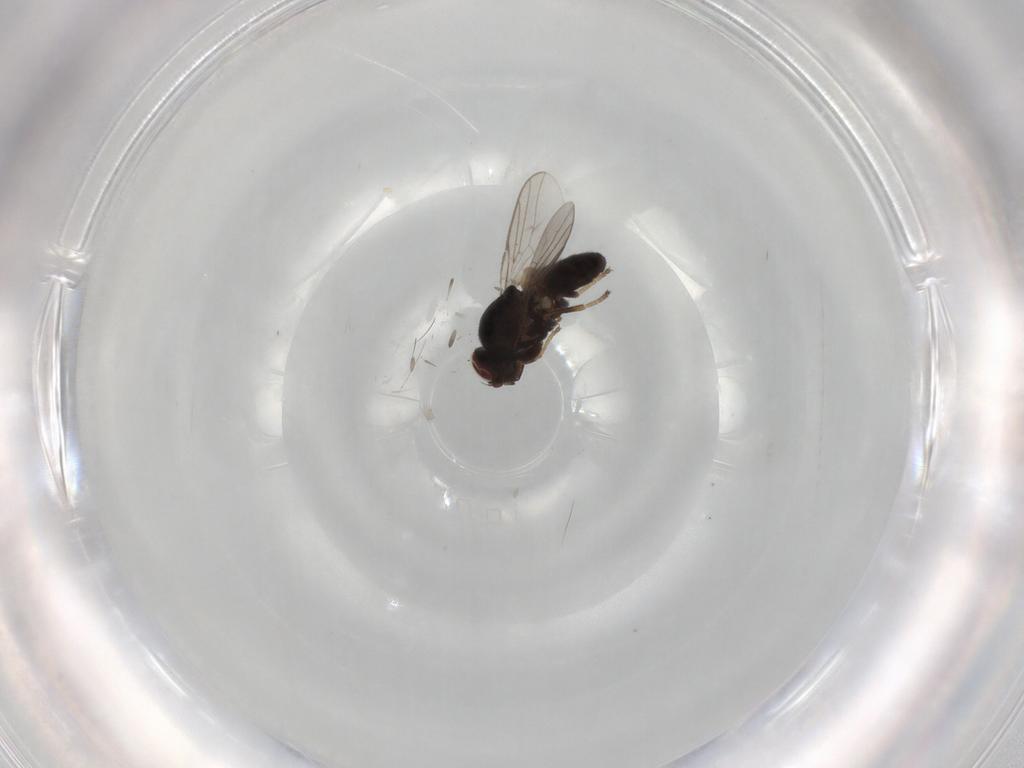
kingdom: Animalia
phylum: Arthropoda
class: Insecta
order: Diptera
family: Chloropidae
